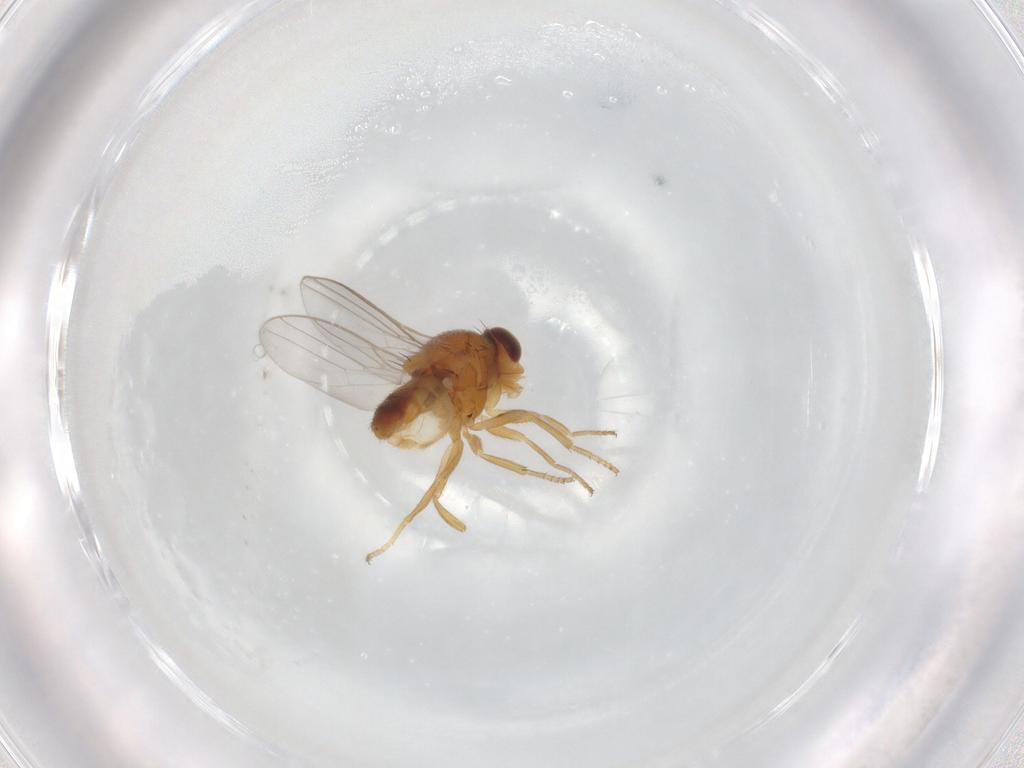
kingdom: Animalia
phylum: Arthropoda
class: Insecta
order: Diptera
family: Chloropidae
